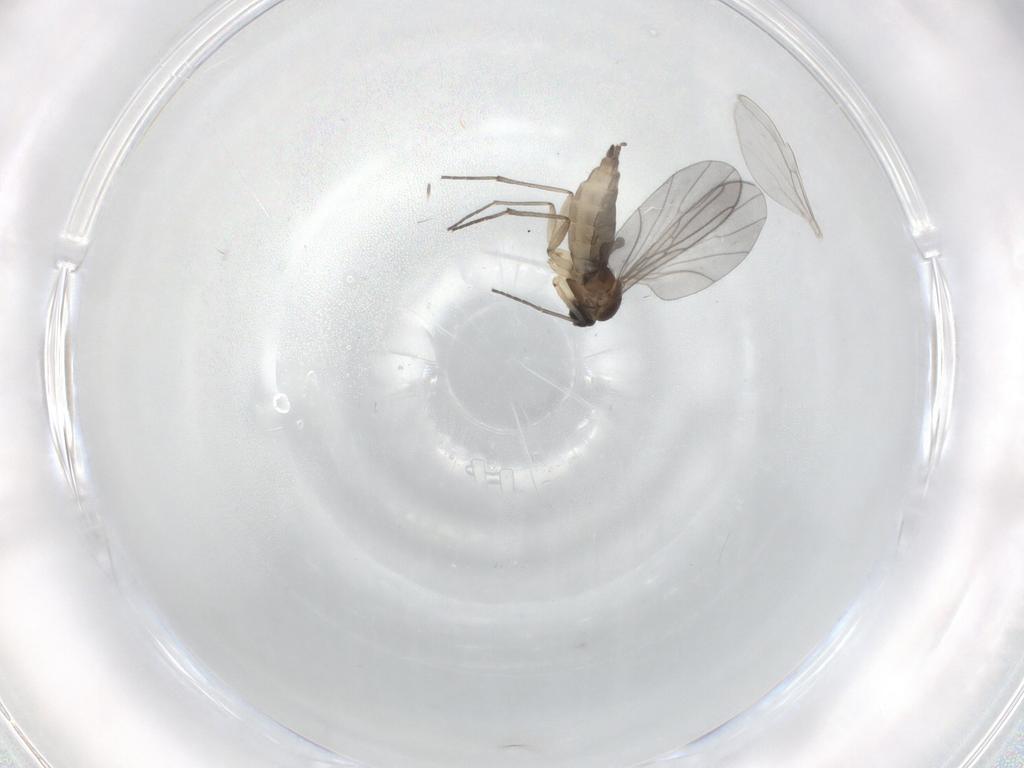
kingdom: Animalia
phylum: Arthropoda
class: Insecta
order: Diptera
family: Sciaridae
